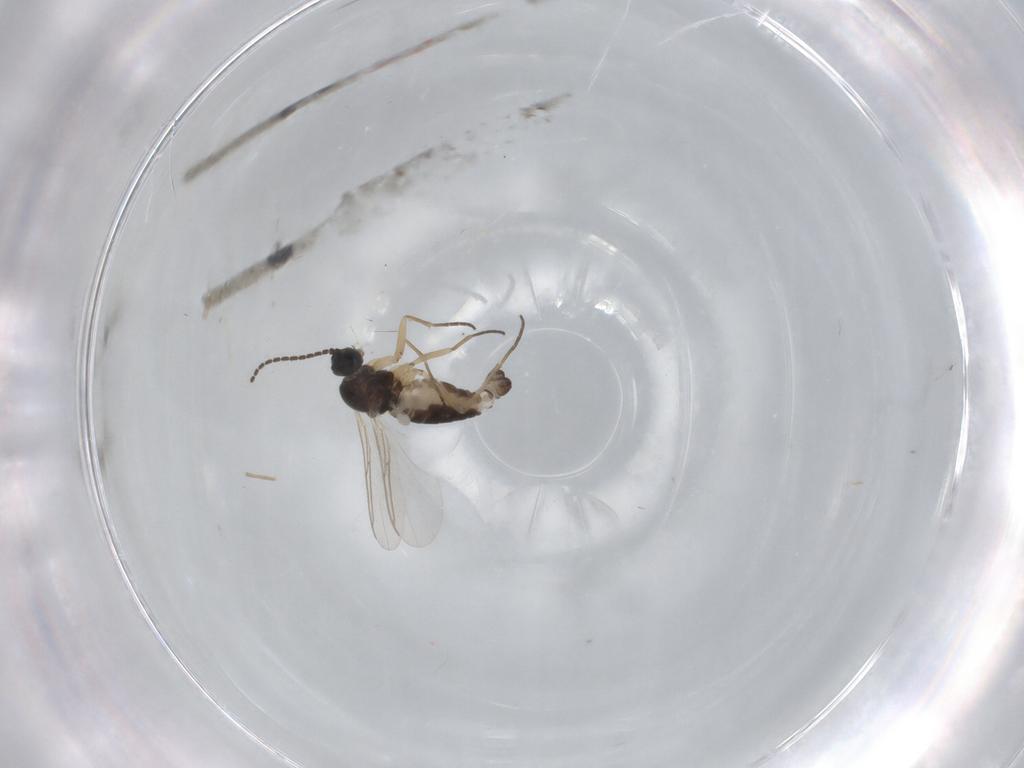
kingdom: Animalia
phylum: Arthropoda
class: Insecta
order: Diptera
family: Sciaridae
